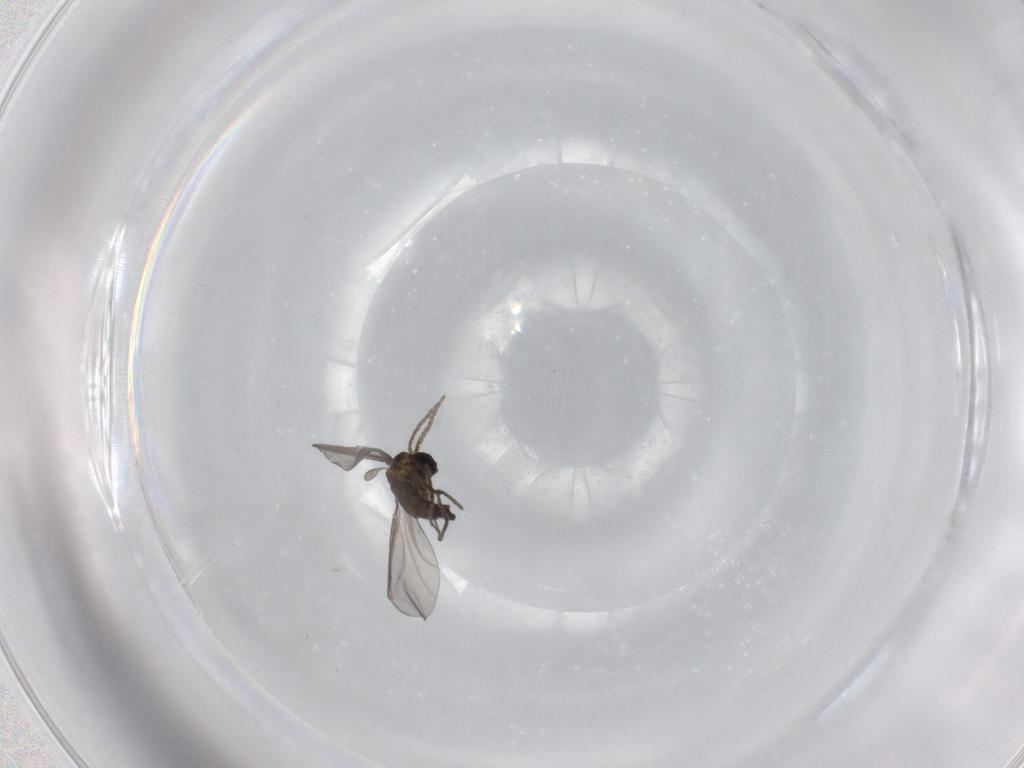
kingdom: Animalia
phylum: Arthropoda
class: Insecta
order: Diptera
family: Sciaridae
